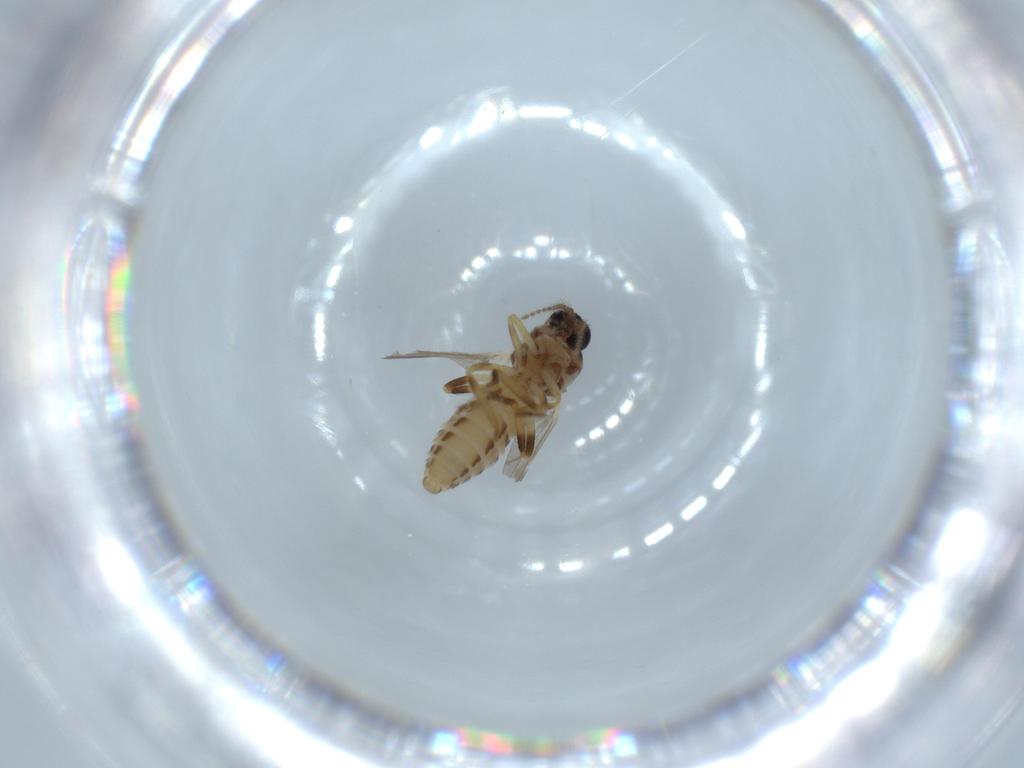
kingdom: Animalia
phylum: Arthropoda
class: Insecta
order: Diptera
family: Ceratopogonidae
